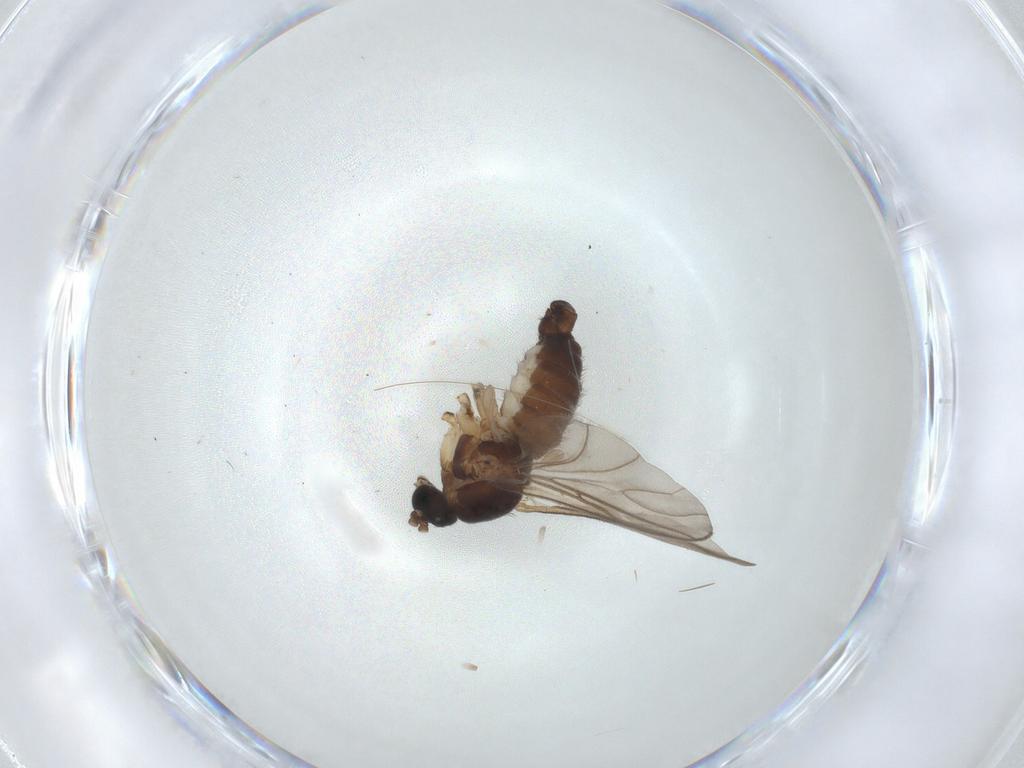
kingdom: Animalia
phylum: Arthropoda
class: Insecta
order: Diptera
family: Sciaridae
